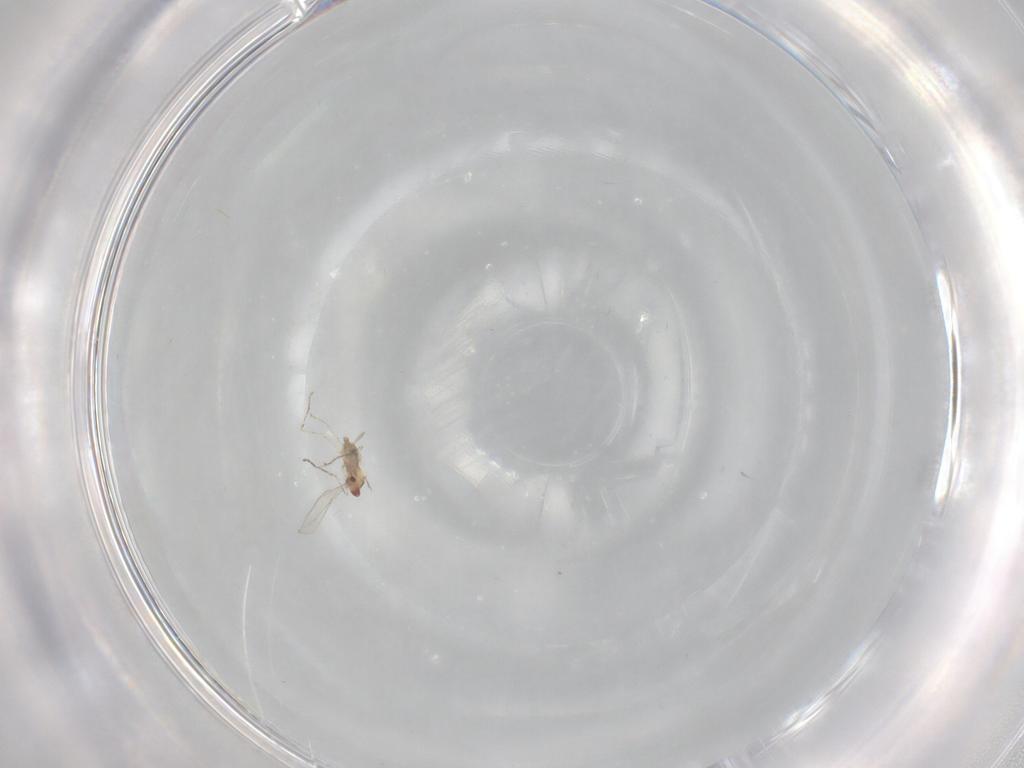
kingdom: Animalia
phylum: Arthropoda
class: Insecta
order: Diptera
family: Cecidomyiidae
